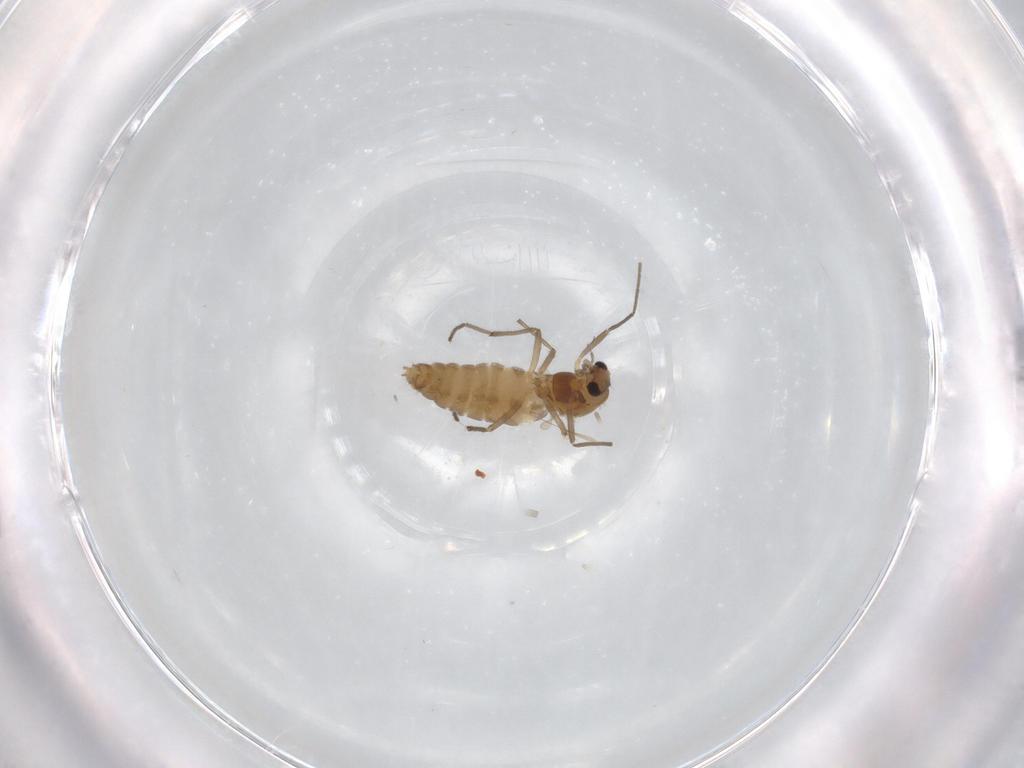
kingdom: Animalia
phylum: Arthropoda
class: Insecta
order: Diptera
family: Chironomidae
